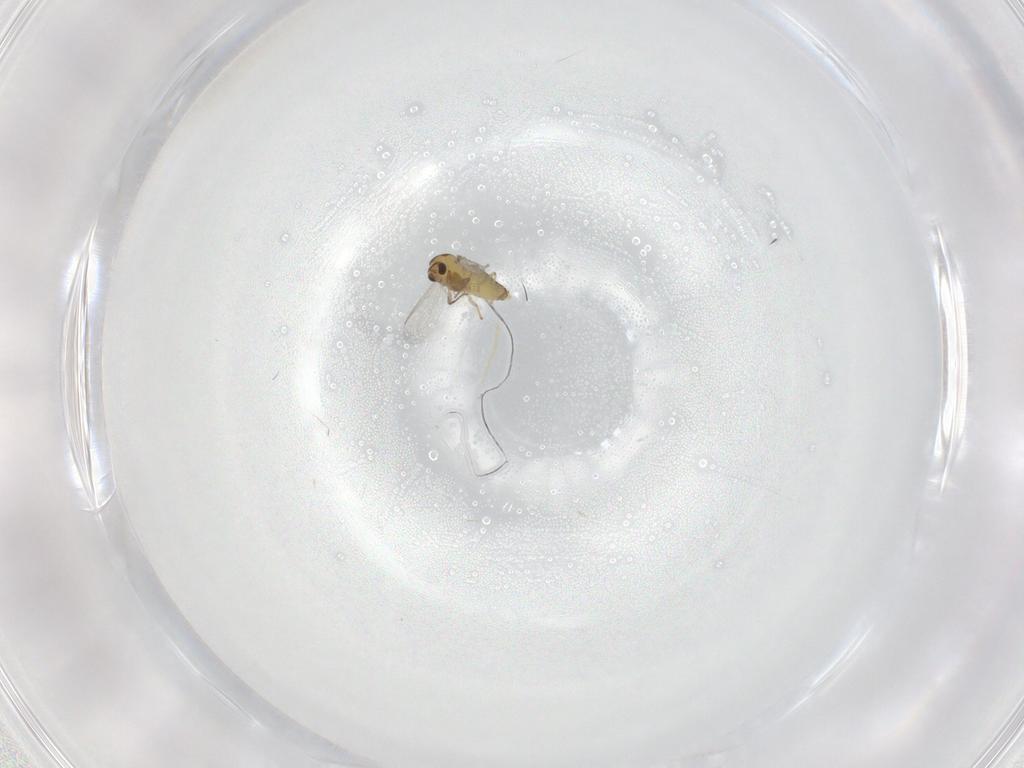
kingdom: Animalia
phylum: Arthropoda
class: Insecta
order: Diptera
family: Chironomidae
